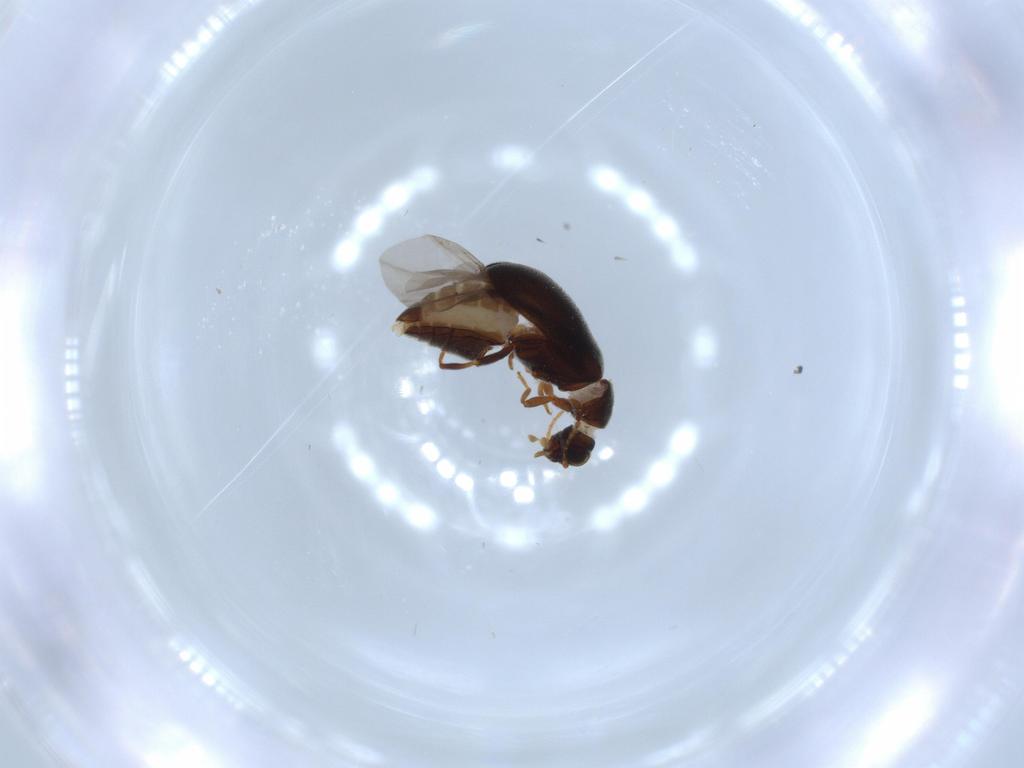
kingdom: Animalia
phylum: Arthropoda
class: Insecta
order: Coleoptera
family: Aderidae
